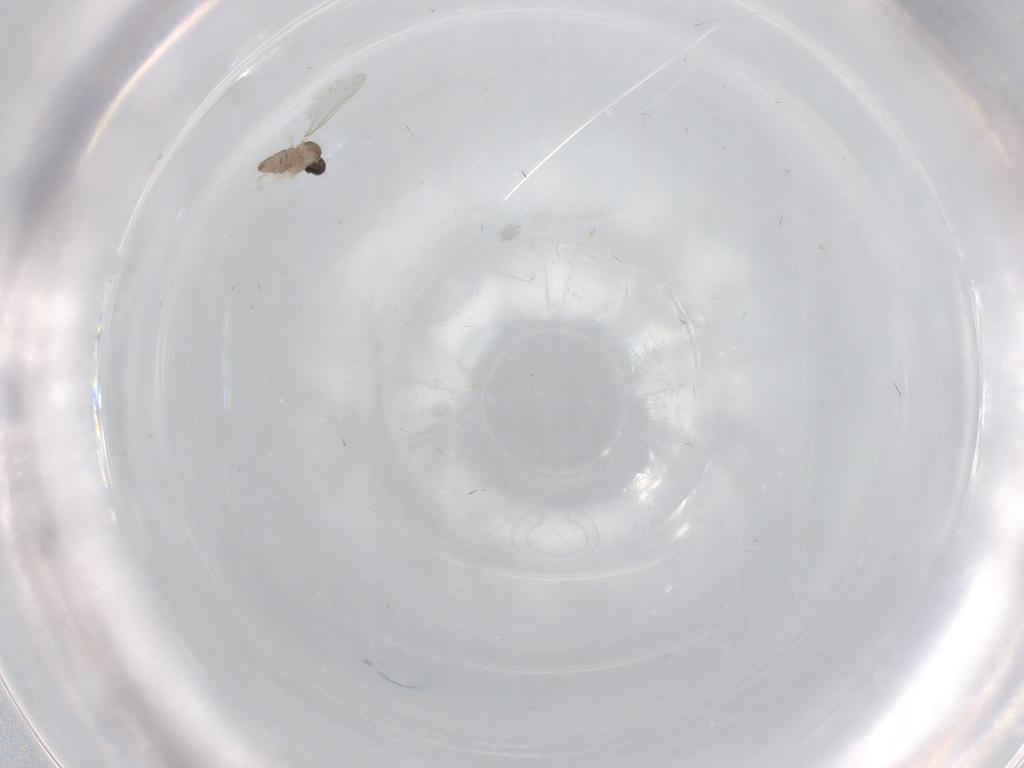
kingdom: Animalia
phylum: Arthropoda
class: Insecta
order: Diptera
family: Cecidomyiidae
